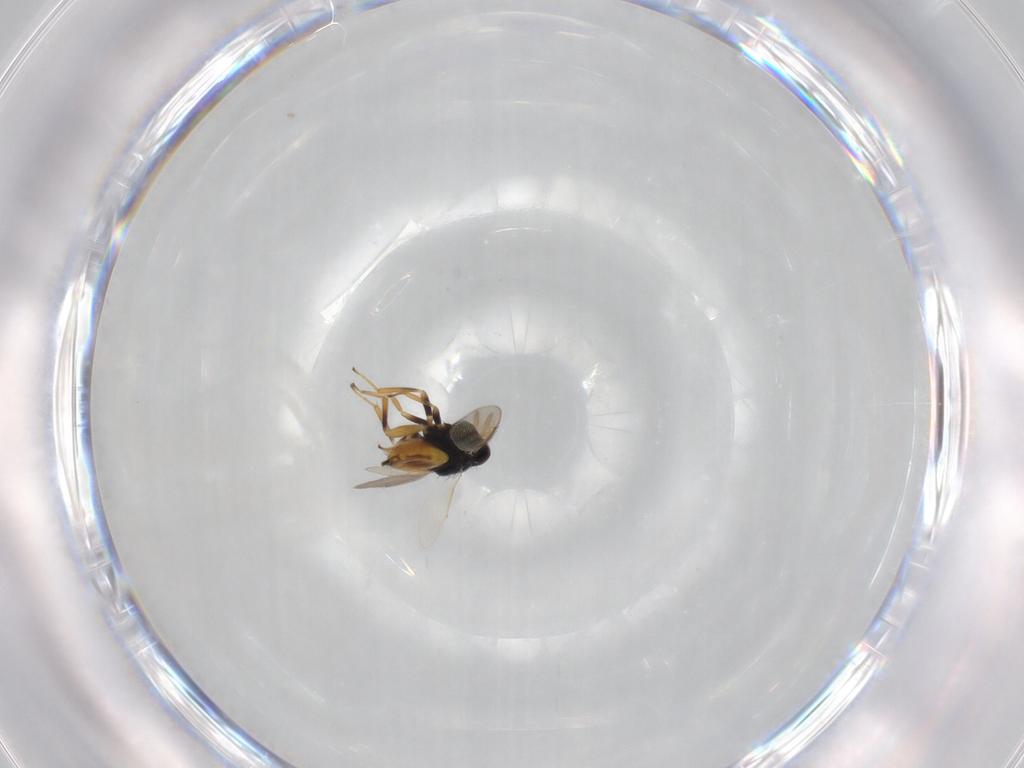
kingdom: Animalia
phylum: Arthropoda
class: Insecta
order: Hymenoptera
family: Aphelinidae
